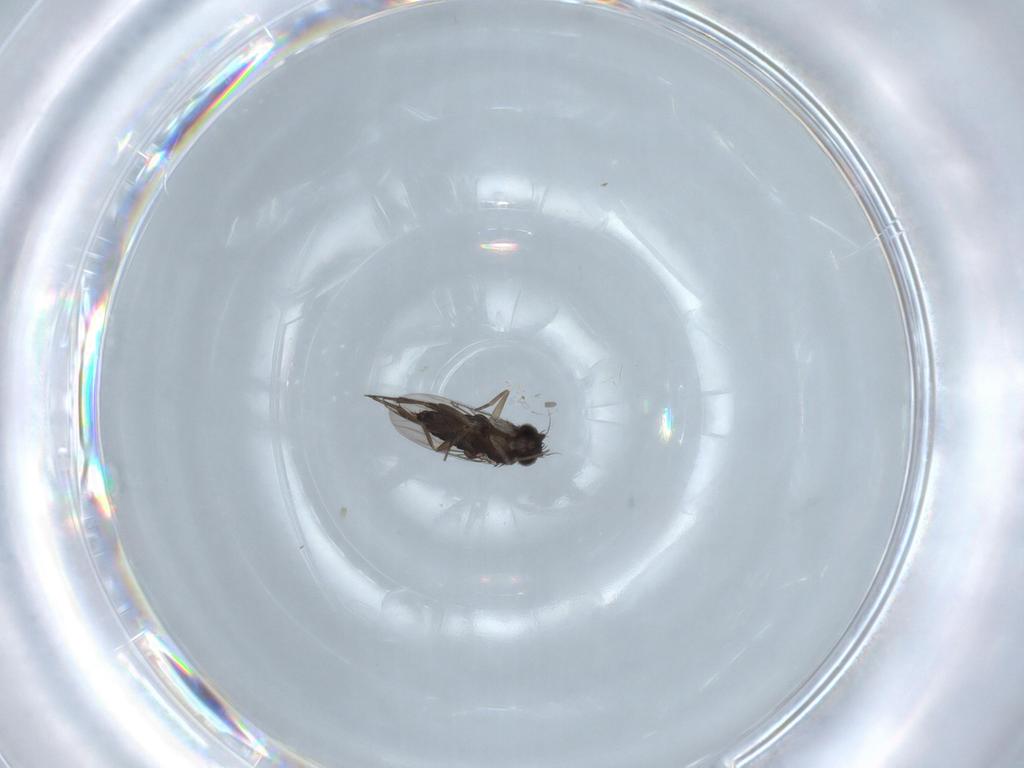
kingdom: Animalia
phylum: Arthropoda
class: Insecta
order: Diptera
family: Phoridae
